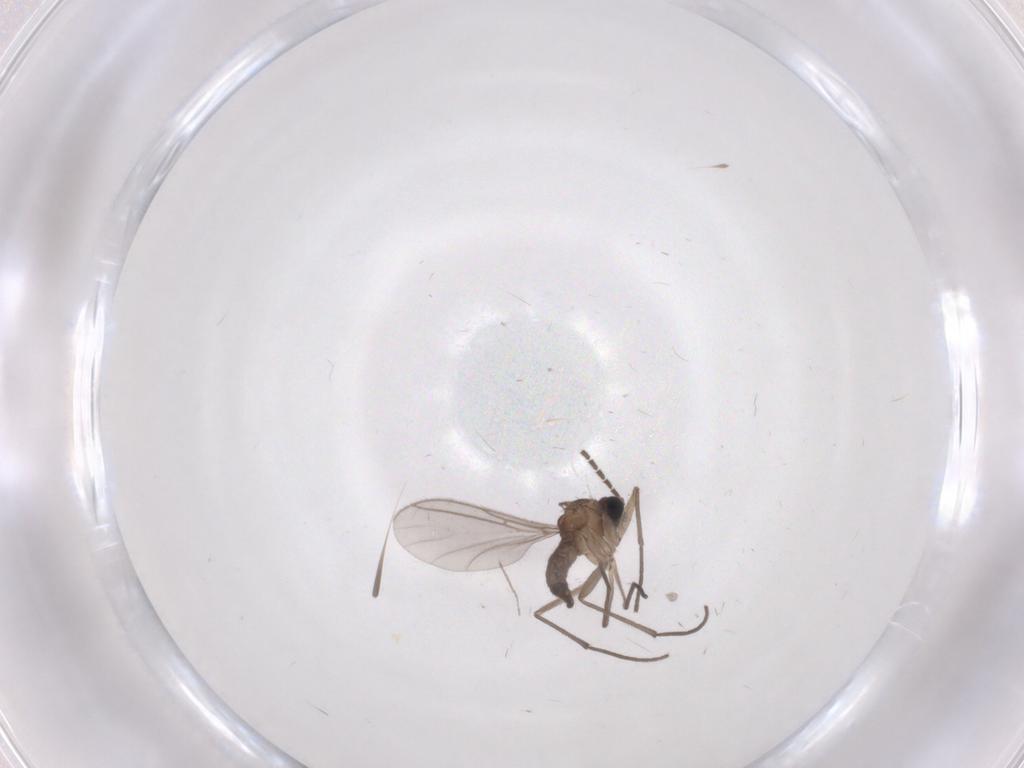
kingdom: Animalia
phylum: Arthropoda
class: Insecta
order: Diptera
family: Sciaridae
